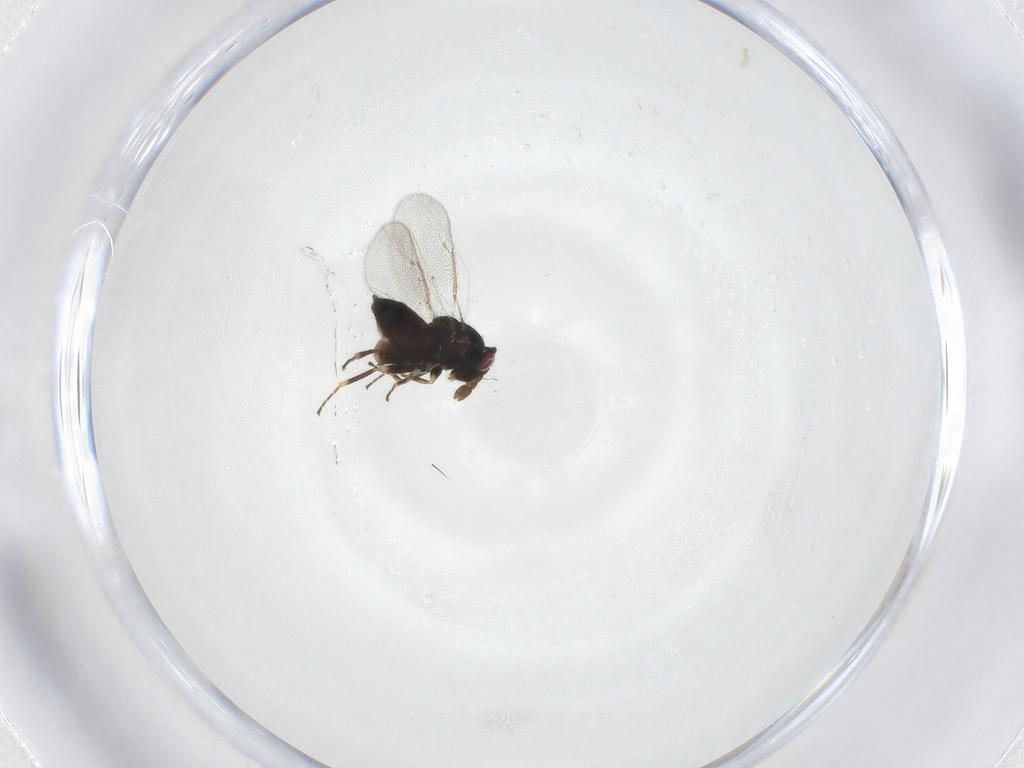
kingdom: Animalia
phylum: Arthropoda
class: Insecta
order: Hymenoptera
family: Eulophidae
